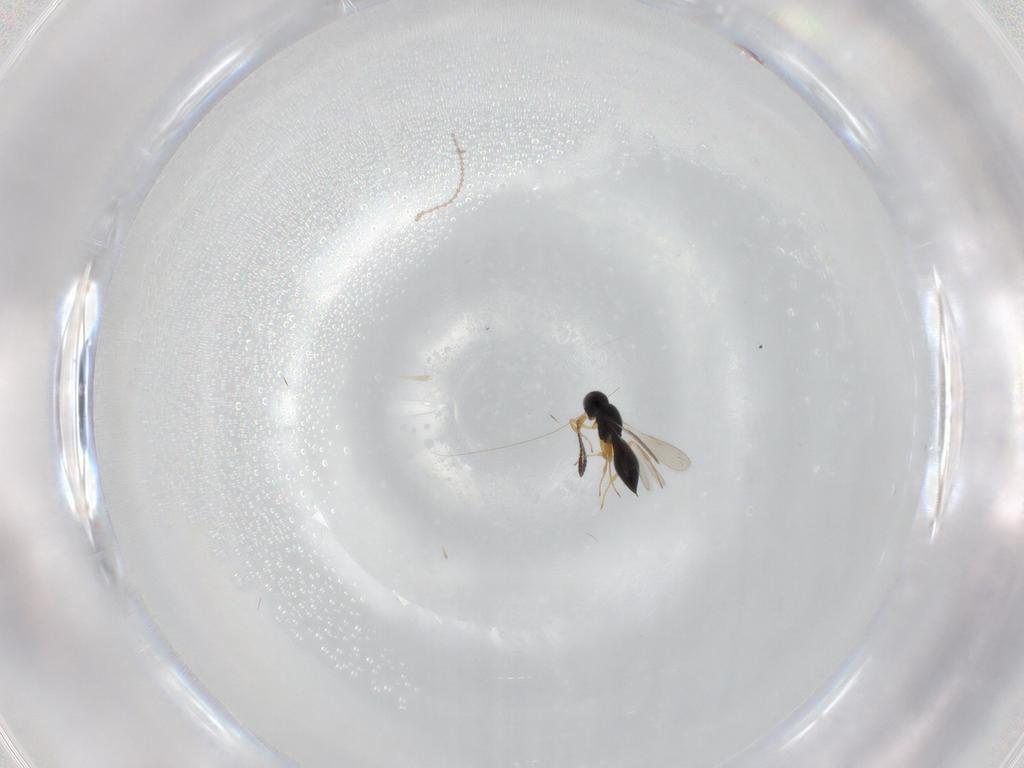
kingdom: Animalia
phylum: Arthropoda
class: Insecta
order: Hymenoptera
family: Scelionidae
